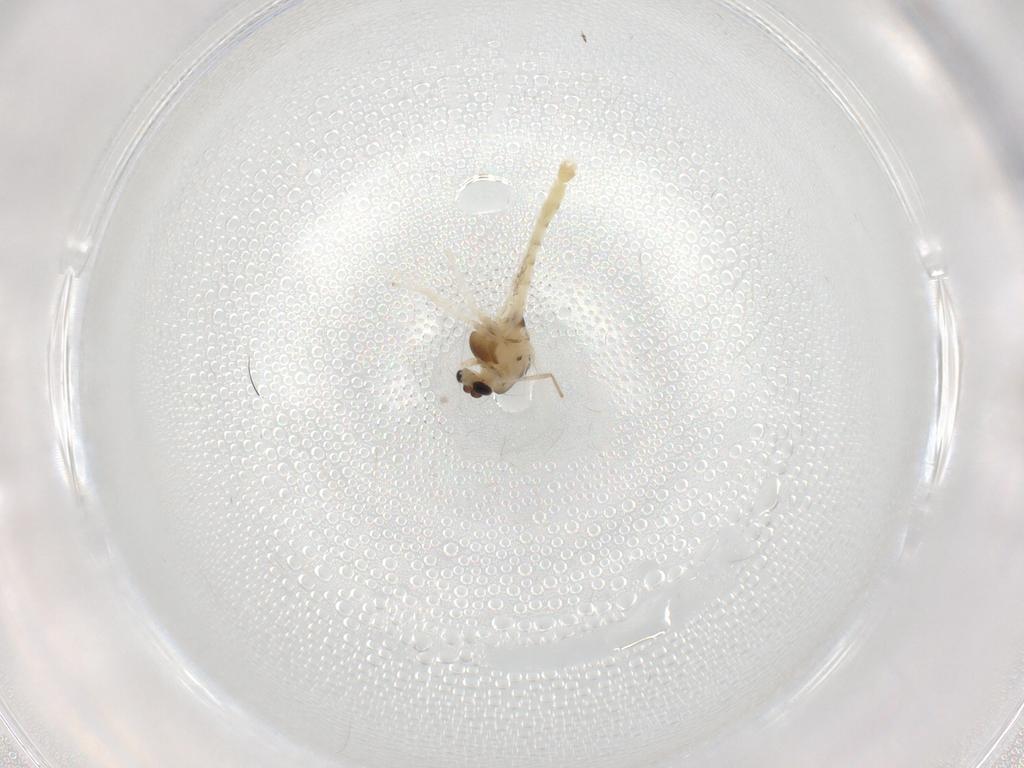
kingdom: Animalia
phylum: Arthropoda
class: Insecta
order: Diptera
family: Chironomidae
